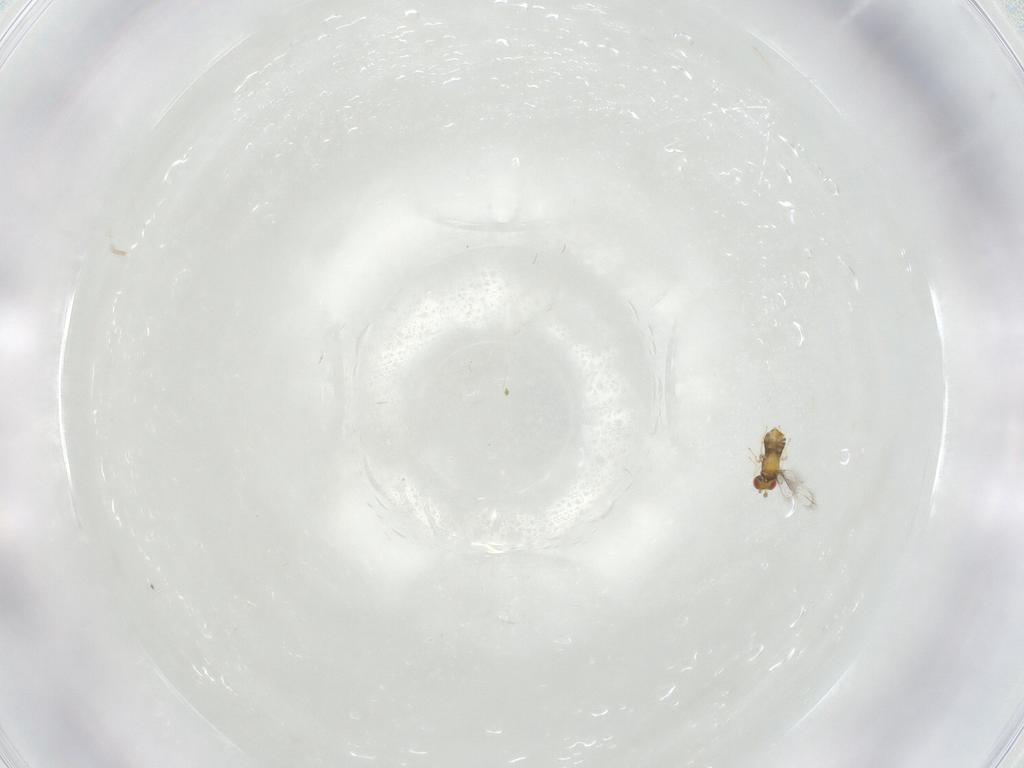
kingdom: Animalia
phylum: Arthropoda
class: Collembola
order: Poduromorpha
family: Hypogastruridae
